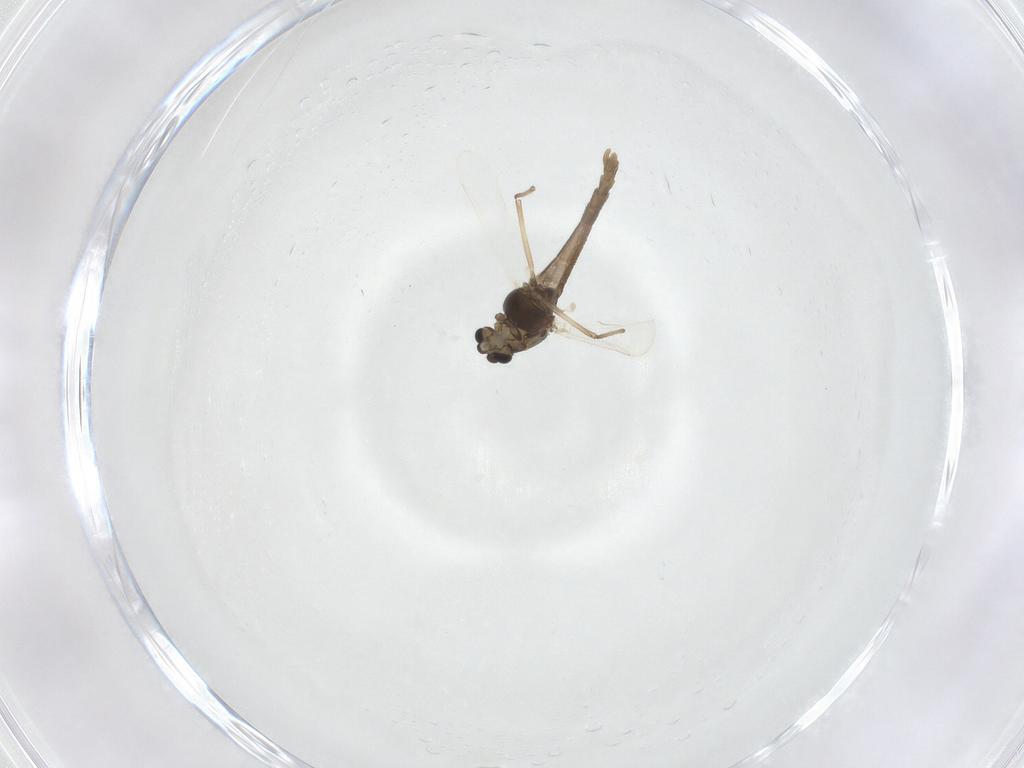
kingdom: Animalia
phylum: Arthropoda
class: Insecta
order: Diptera
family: Chironomidae
